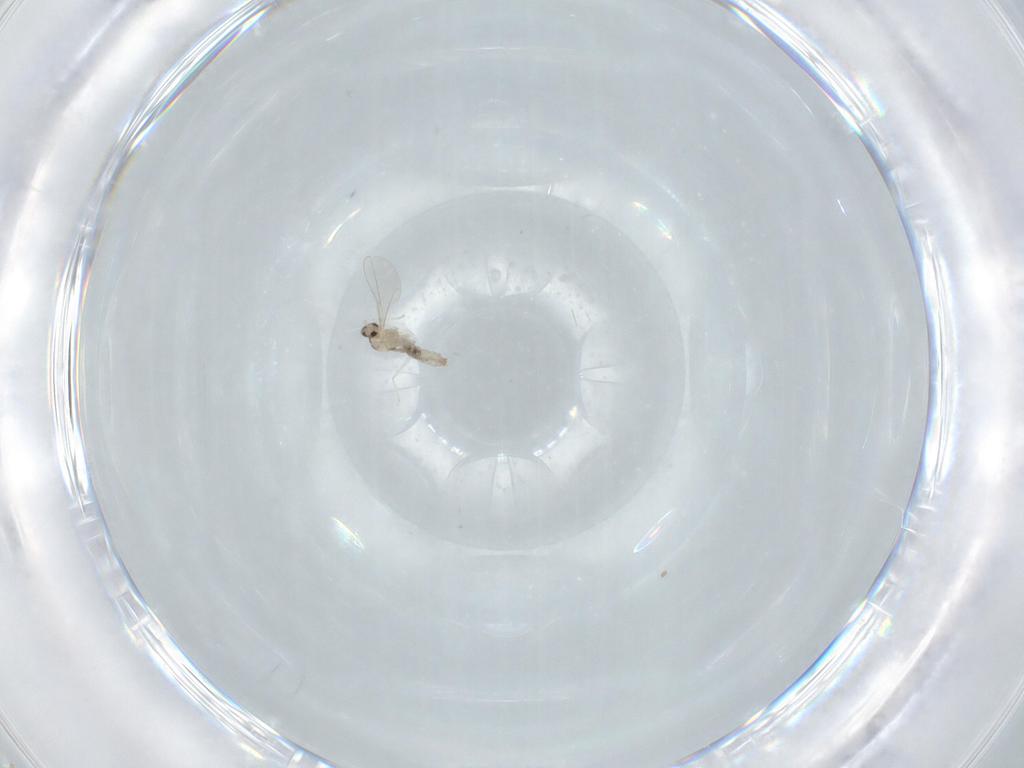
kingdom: Animalia
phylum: Arthropoda
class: Insecta
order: Diptera
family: Cecidomyiidae
